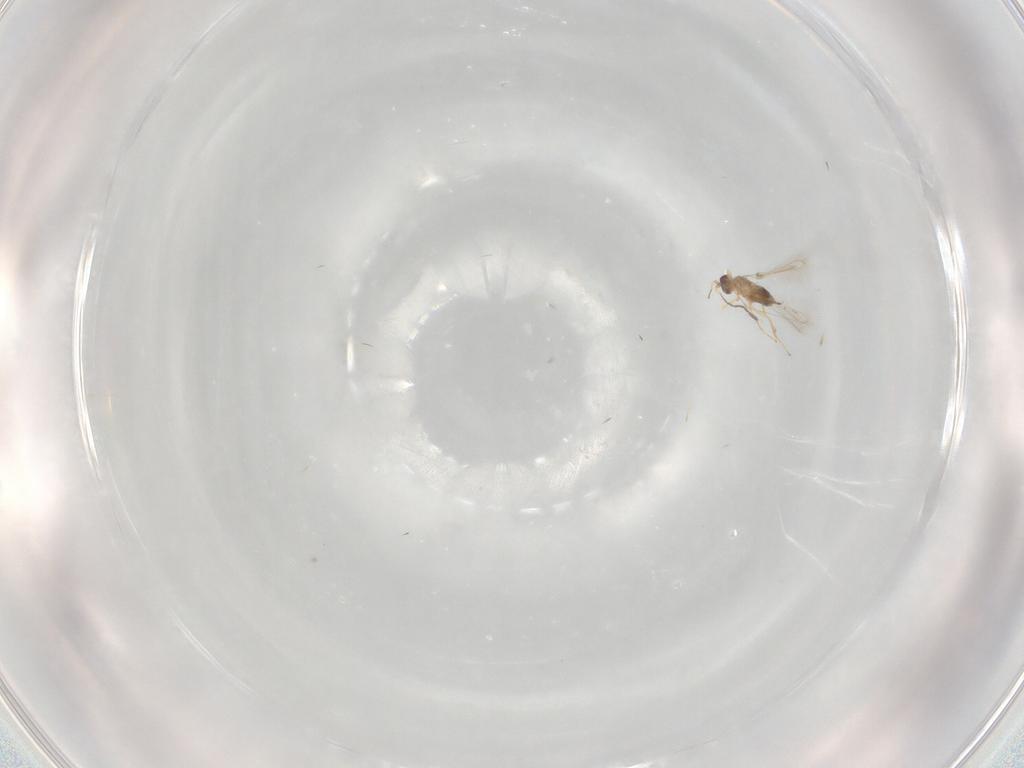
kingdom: Animalia
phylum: Arthropoda
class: Insecta
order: Hymenoptera
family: Mymaridae
